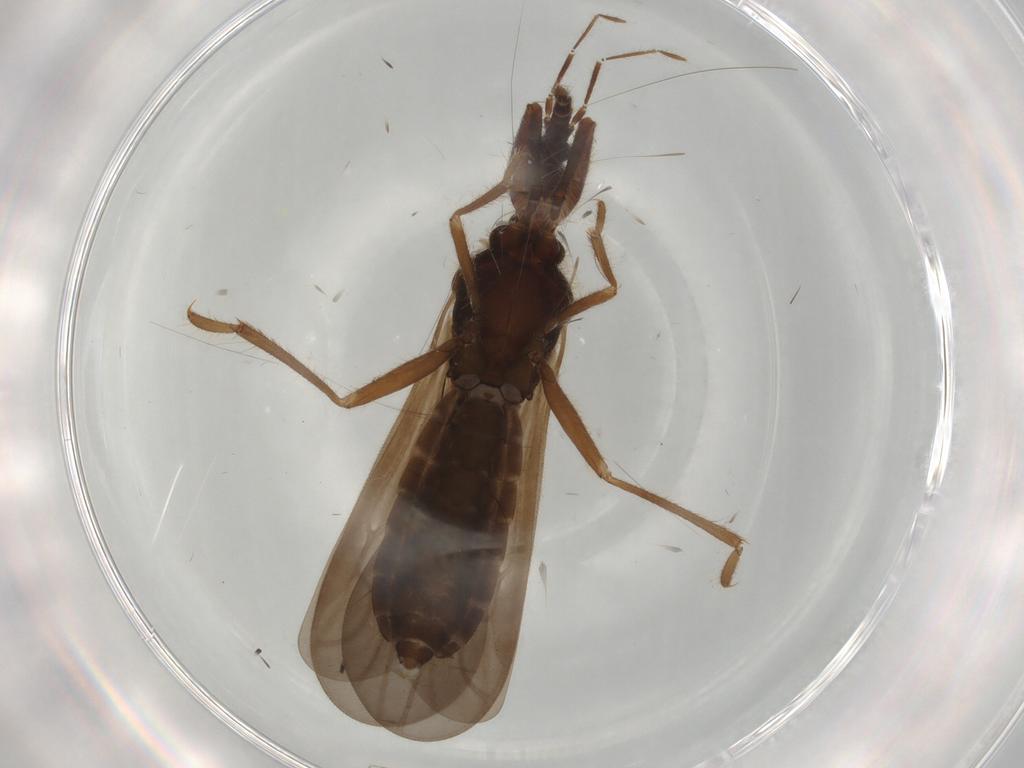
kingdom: Animalia
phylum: Arthropoda
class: Insecta
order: Hemiptera
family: Enicocephalidae
